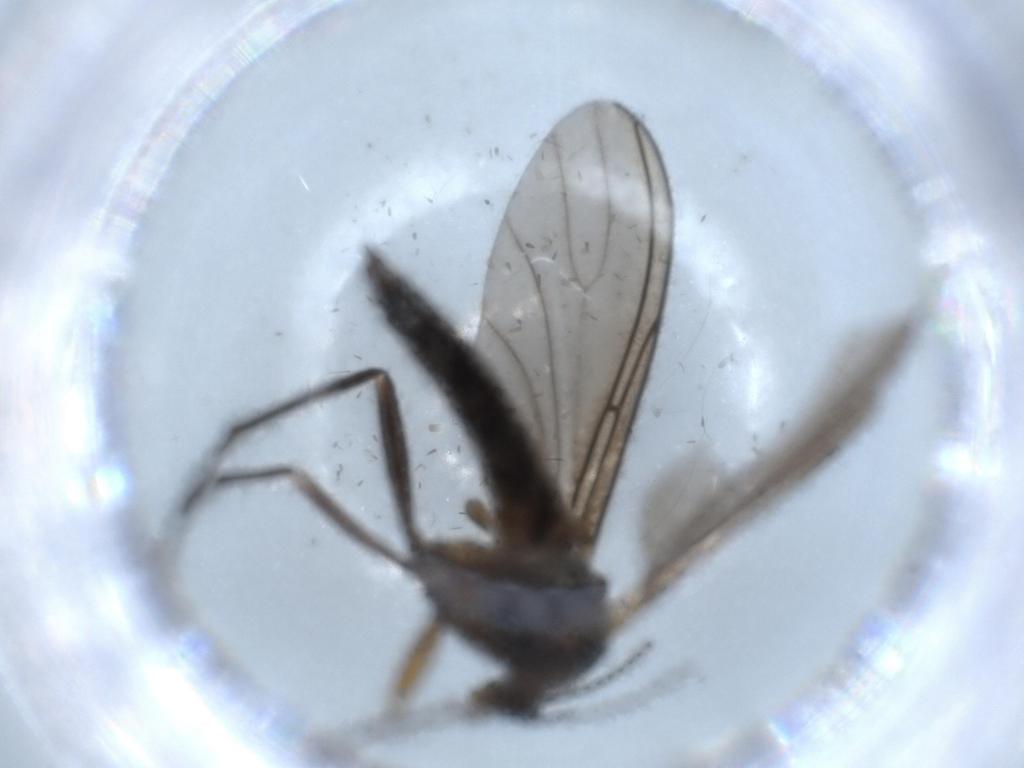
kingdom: Animalia
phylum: Arthropoda
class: Insecta
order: Diptera
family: Sciaridae
